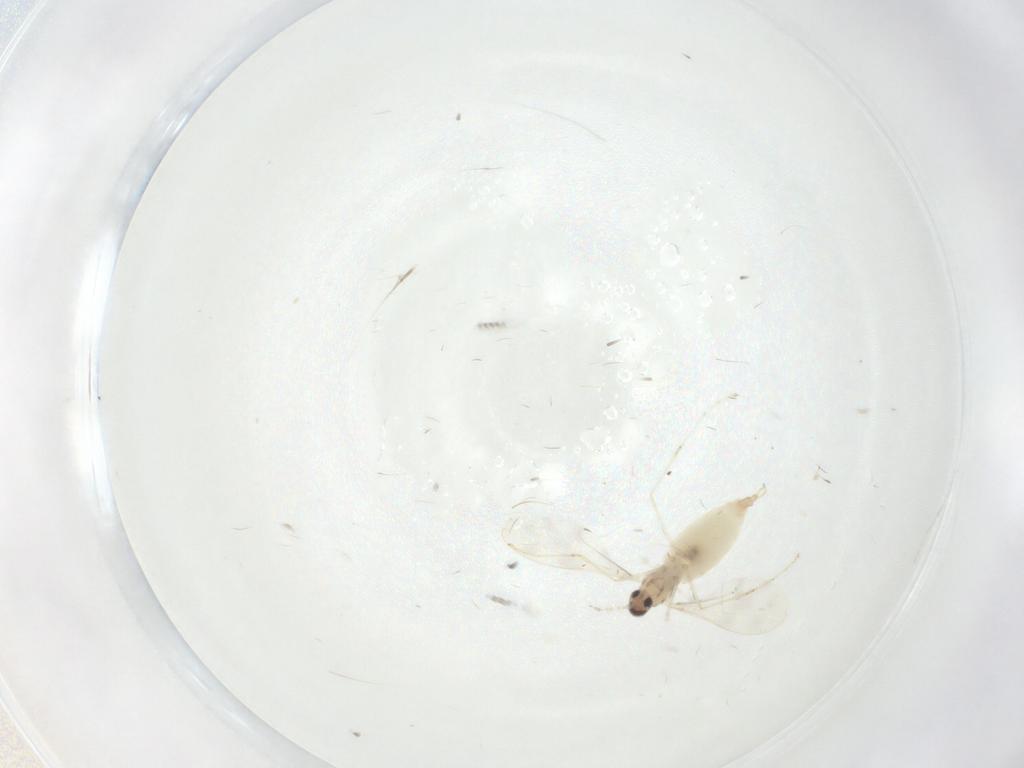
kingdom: Animalia
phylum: Arthropoda
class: Insecta
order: Diptera
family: Cecidomyiidae
